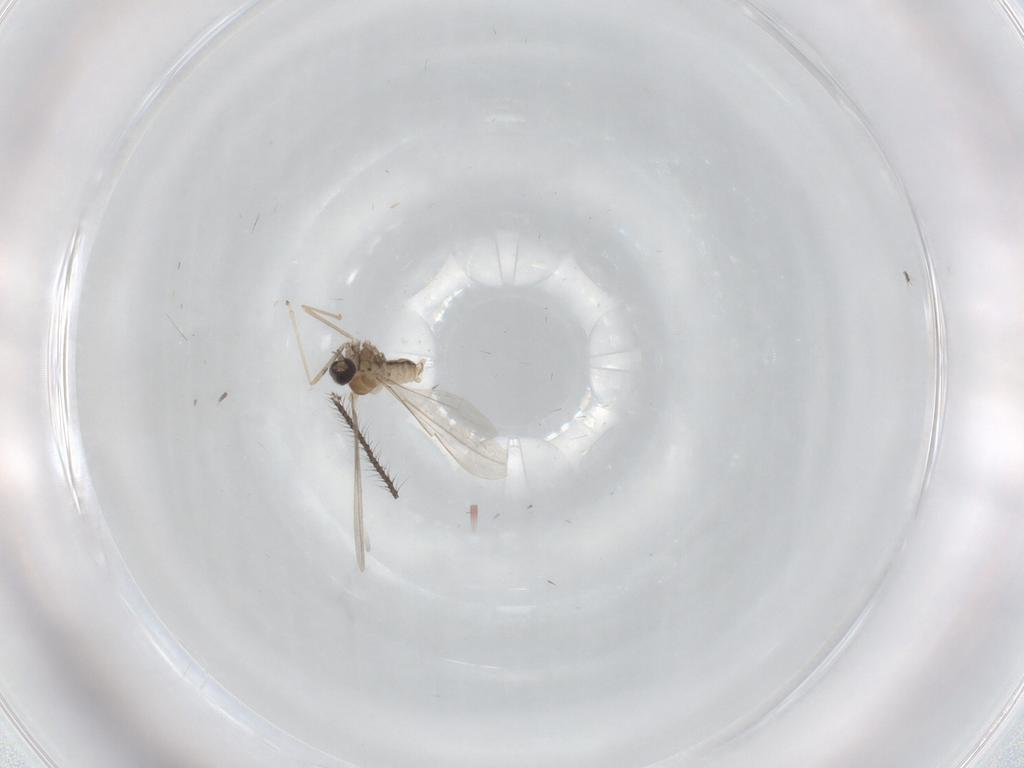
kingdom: Animalia
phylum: Arthropoda
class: Insecta
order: Diptera
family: Cecidomyiidae
